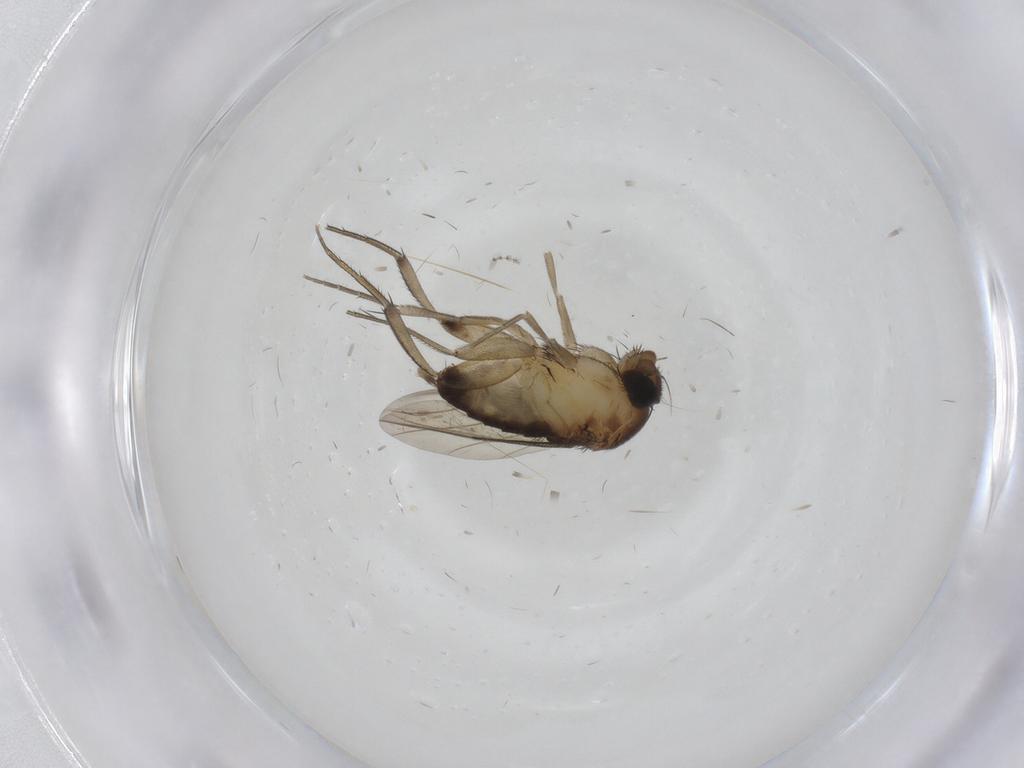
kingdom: Animalia
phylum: Arthropoda
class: Insecta
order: Diptera
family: Phoridae
